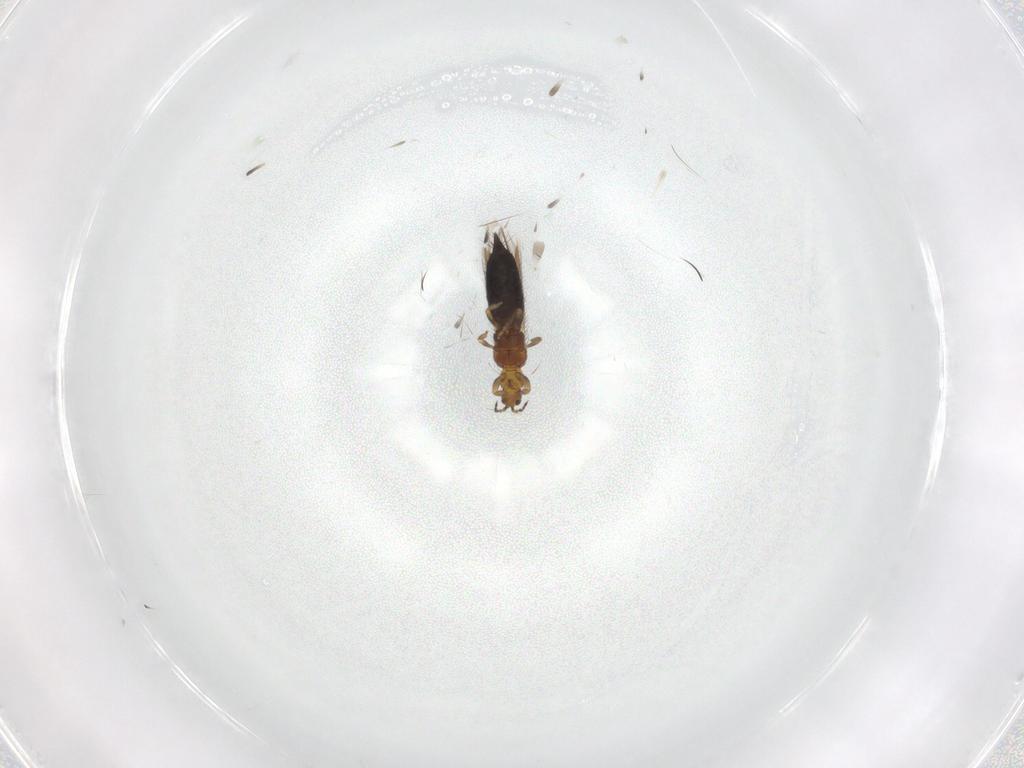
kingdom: Animalia
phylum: Arthropoda
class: Insecta
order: Thysanoptera
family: Thripidae
